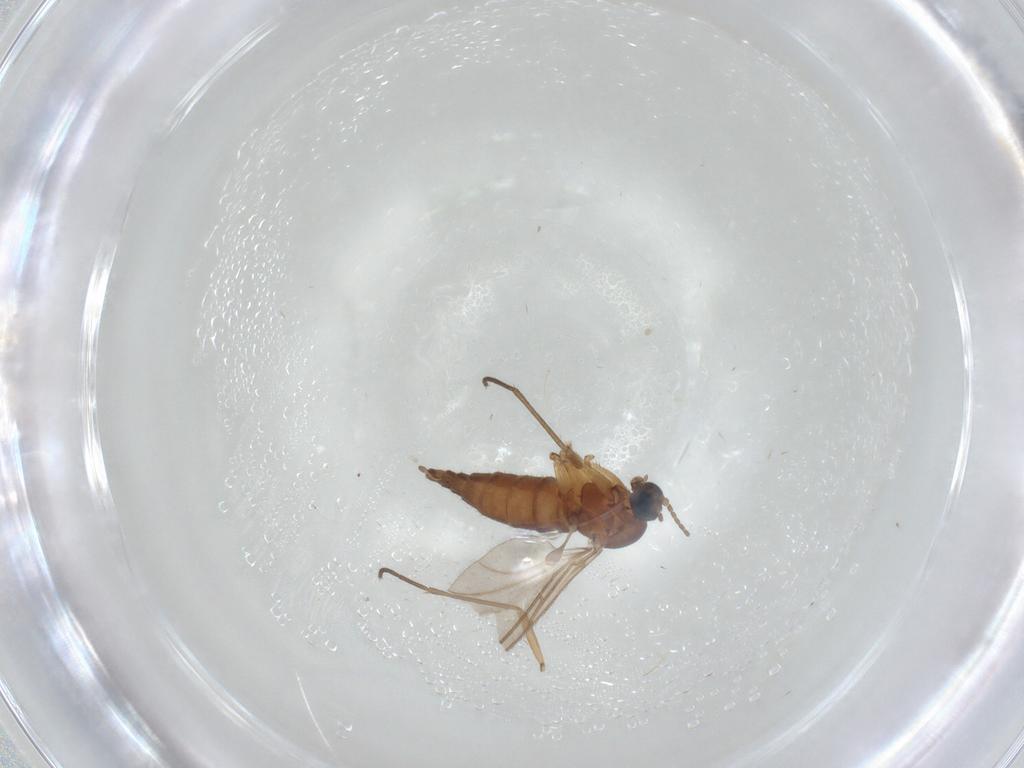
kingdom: Animalia
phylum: Arthropoda
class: Insecta
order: Diptera
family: Sciaridae
